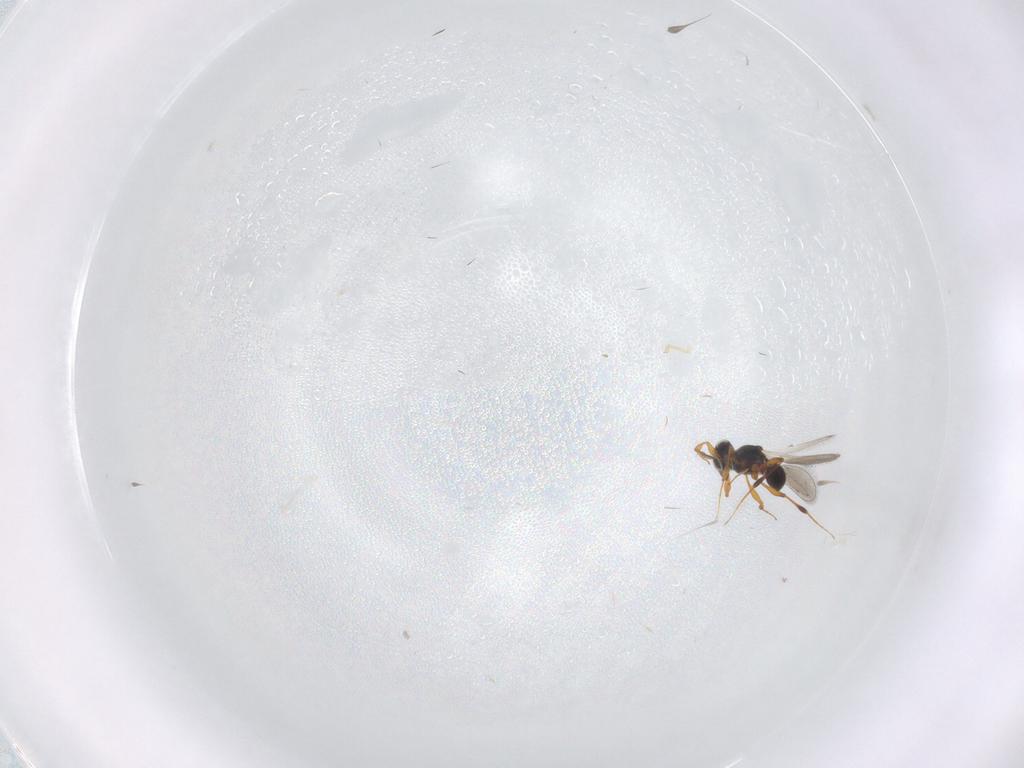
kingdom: Animalia
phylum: Arthropoda
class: Insecta
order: Hymenoptera
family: Platygastridae
